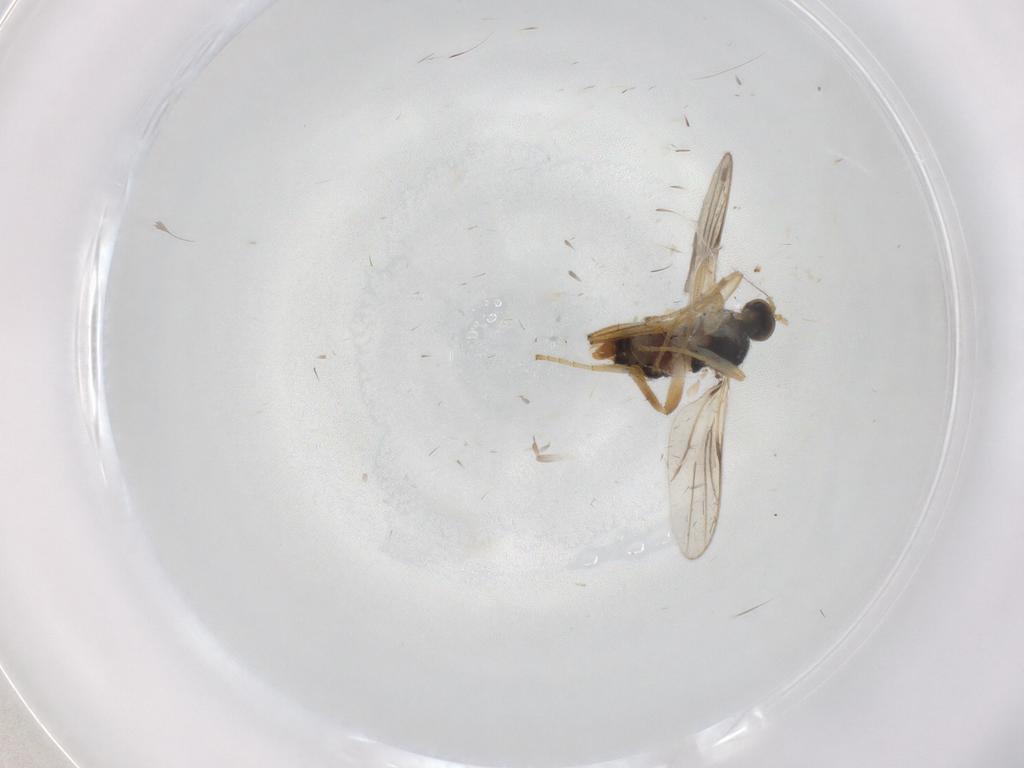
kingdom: Animalia
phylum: Arthropoda
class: Insecta
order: Diptera
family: Hybotidae
